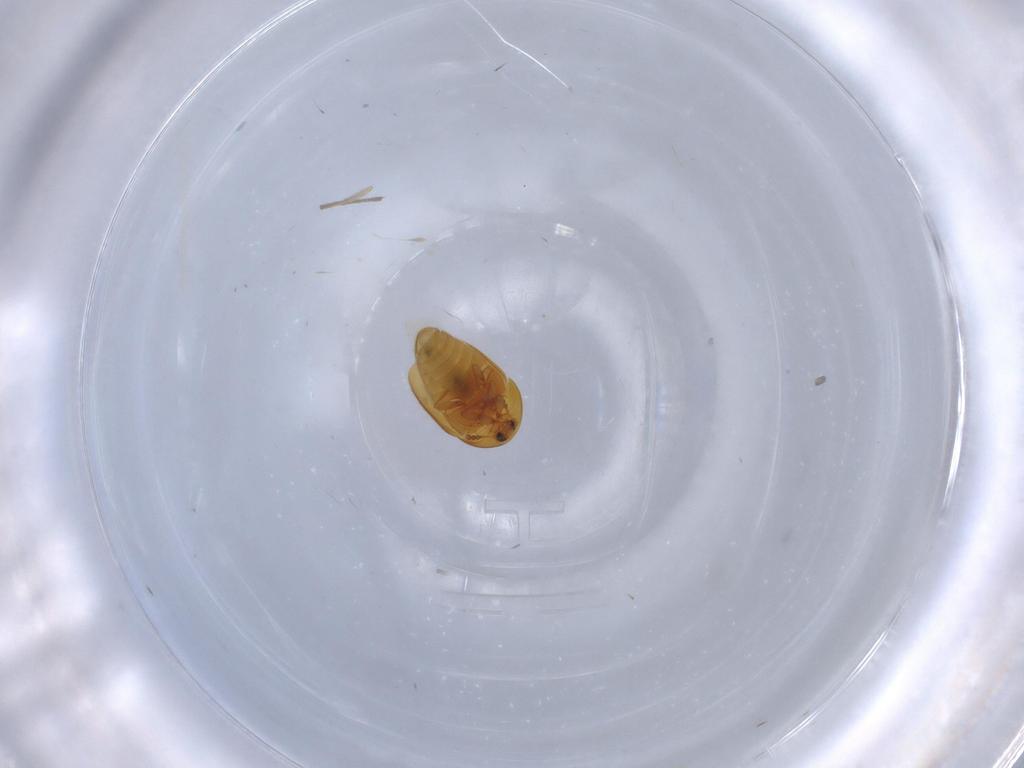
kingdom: Animalia
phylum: Arthropoda
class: Insecta
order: Coleoptera
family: Corylophidae
